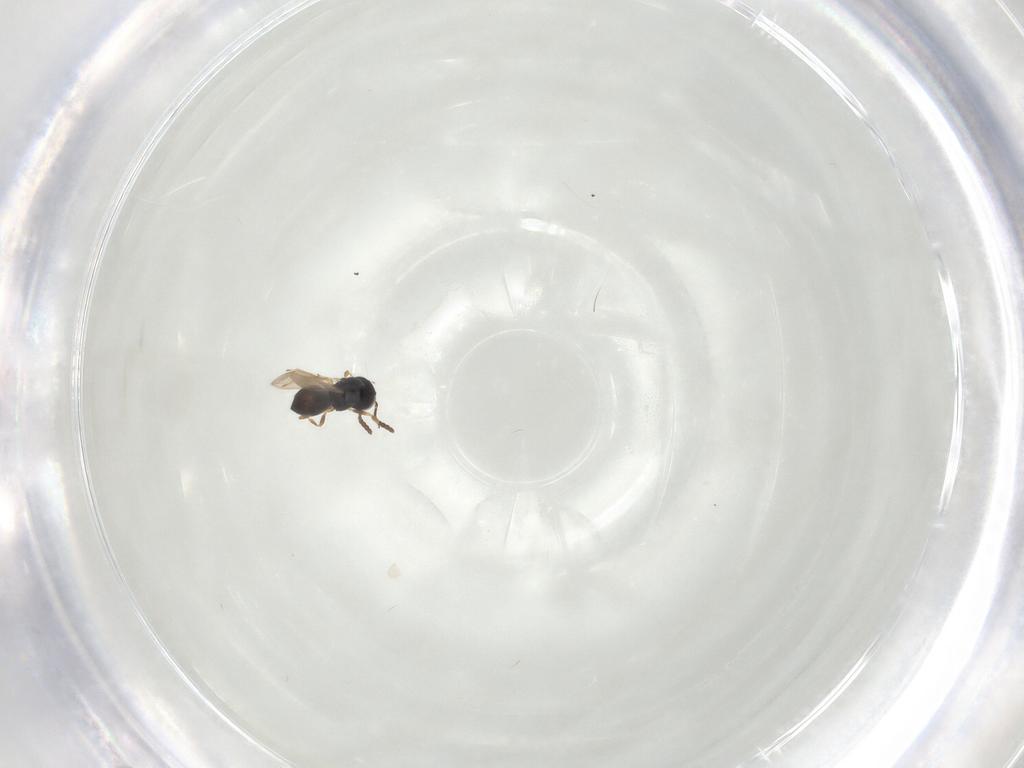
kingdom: Animalia
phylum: Arthropoda
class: Insecta
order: Hymenoptera
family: Scelionidae
